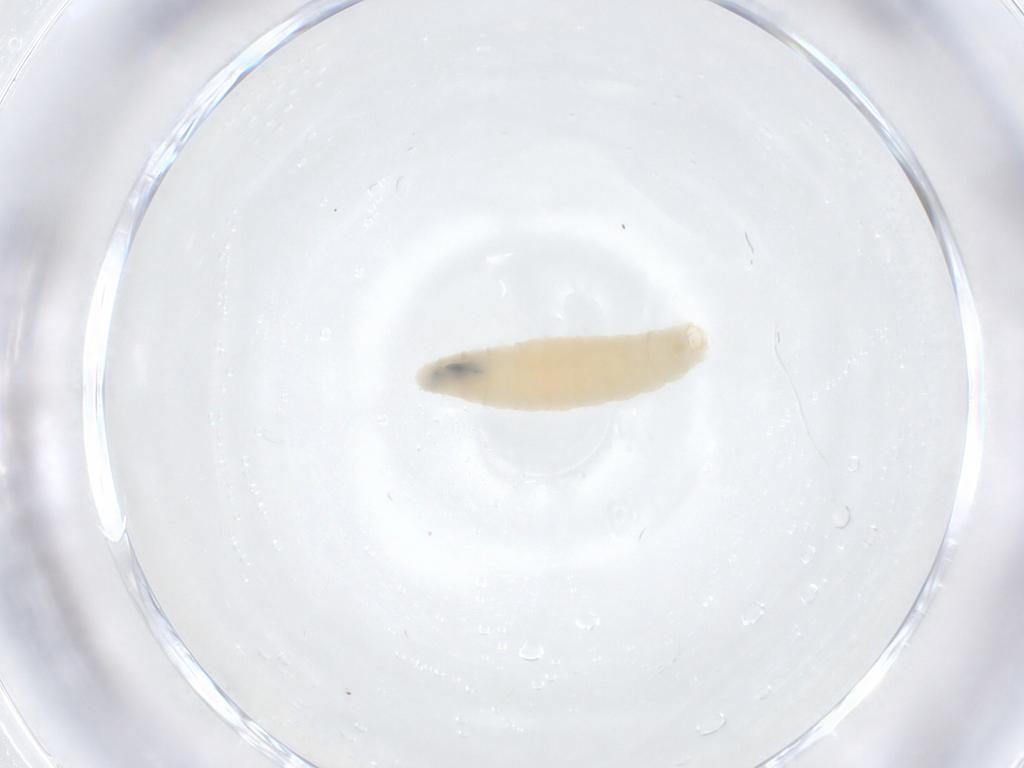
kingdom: Animalia
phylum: Arthropoda
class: Insecta
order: Diptera
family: Sarcophagidae
